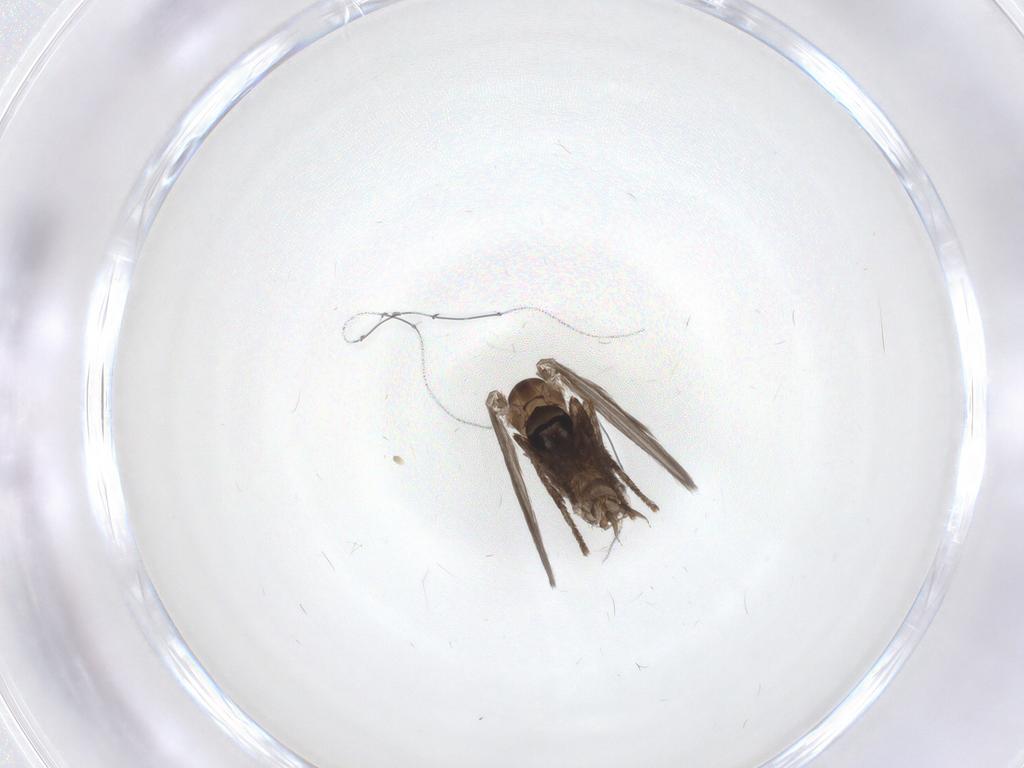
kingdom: Animalia
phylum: Arthropoda
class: Insecta
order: Diptera
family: Psychodidae
